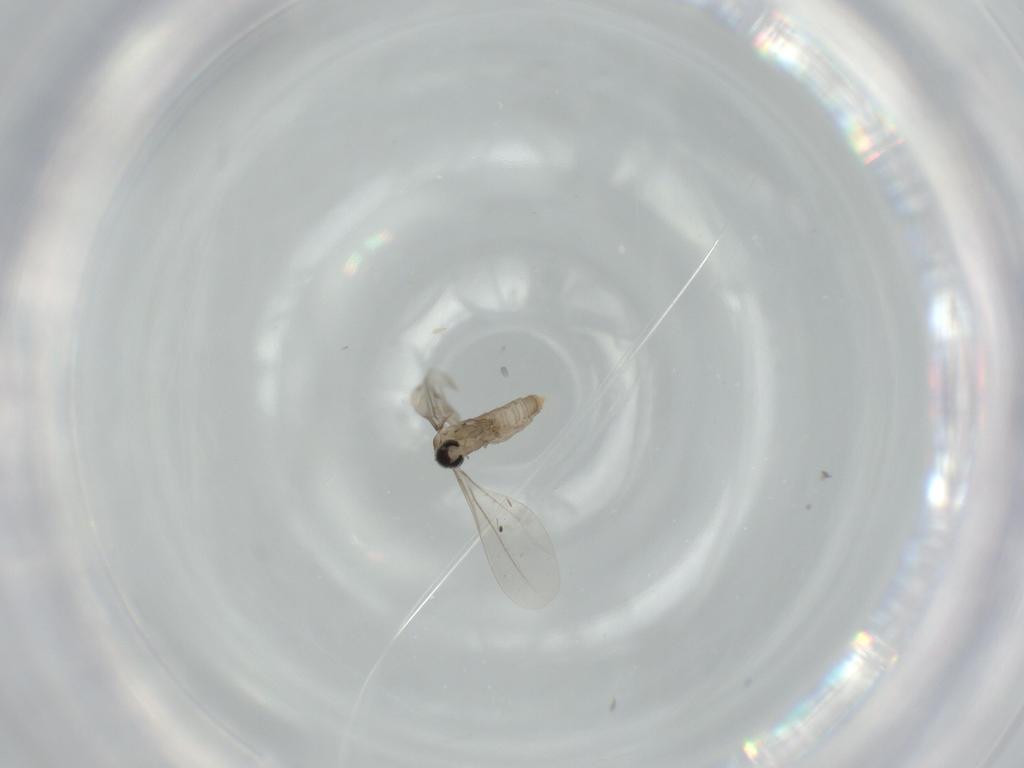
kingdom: Animalia
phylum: Arthropoda
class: Insecta
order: Diptera
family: Cecidomyiidae
